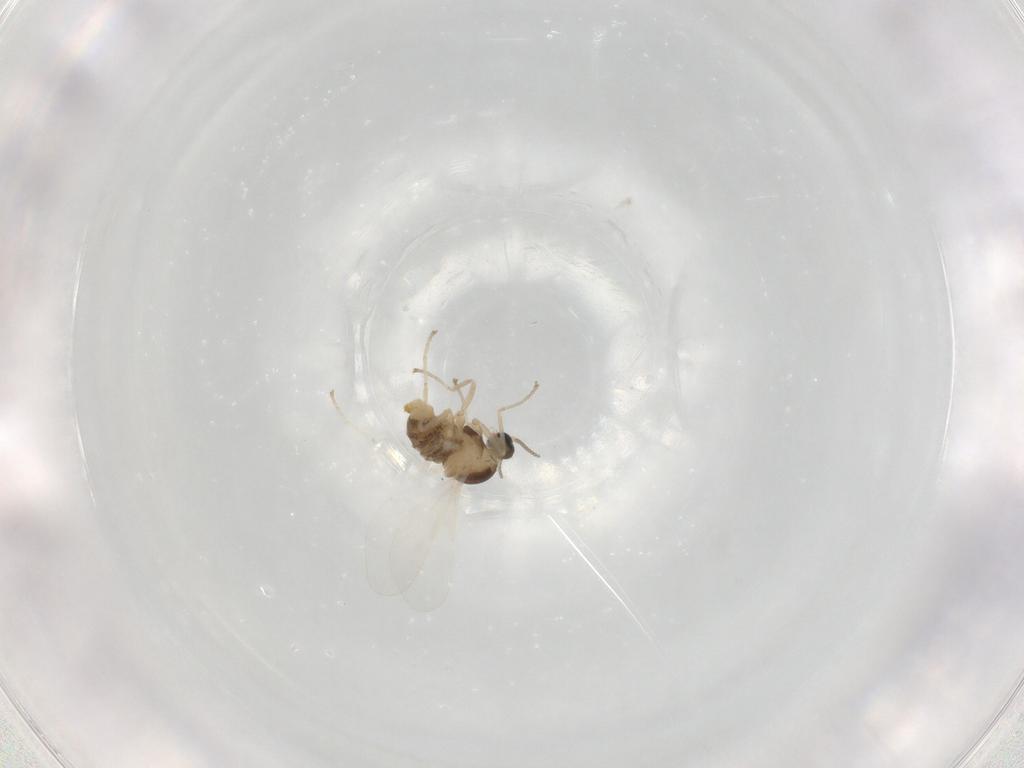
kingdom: Animalia
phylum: Arthropoda
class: Insecta
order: Diptera
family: Cecidomyiidae
